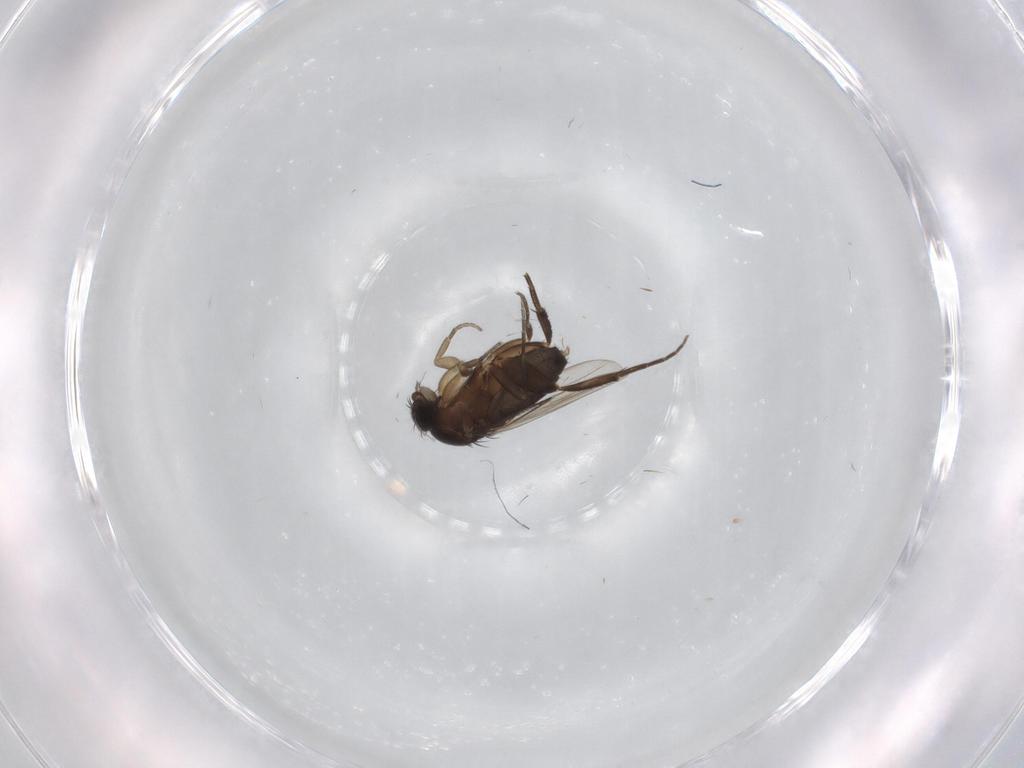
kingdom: Animalia
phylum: Arthropoda
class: Insecta
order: Diptera
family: Phoridae
